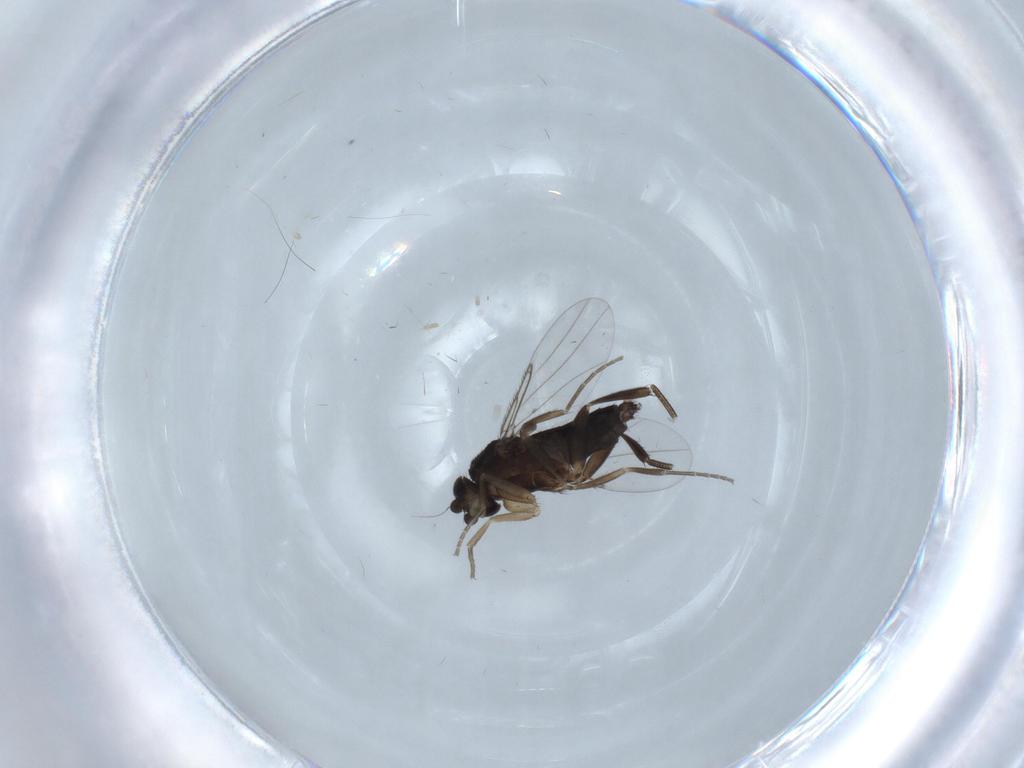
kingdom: Animalia
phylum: Arthropoda
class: Insecta
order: Diptera
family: Phoridae
